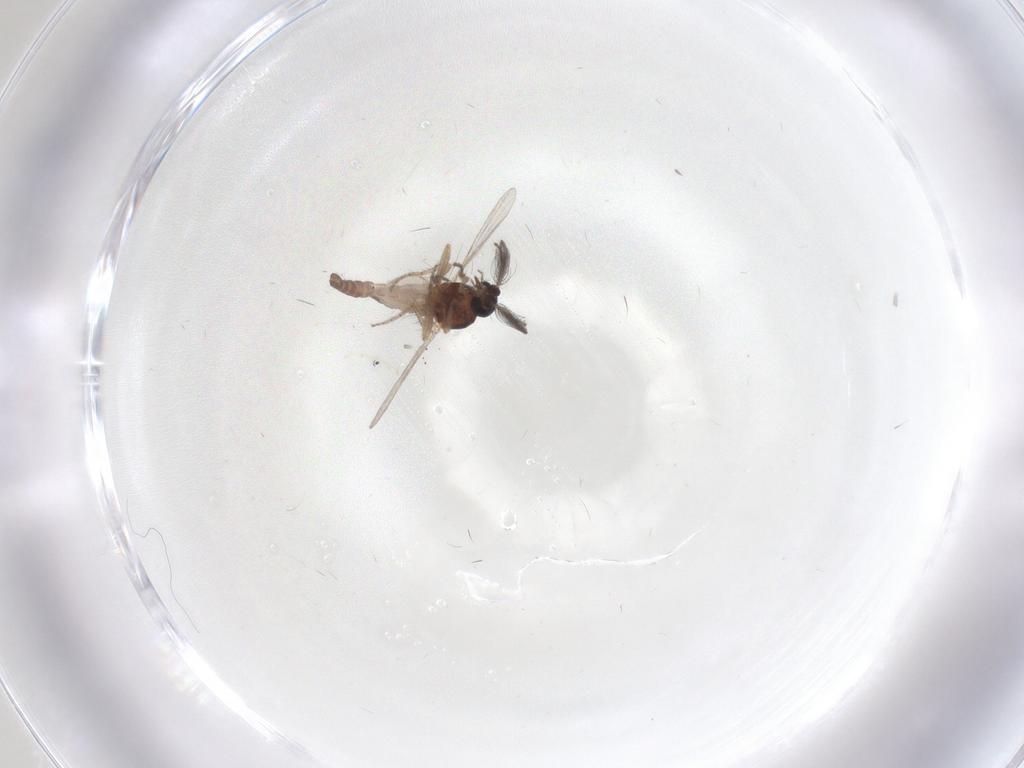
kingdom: Animalia
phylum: Arthropoda
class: Insecta
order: Diptera
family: Ceratopogonidae
